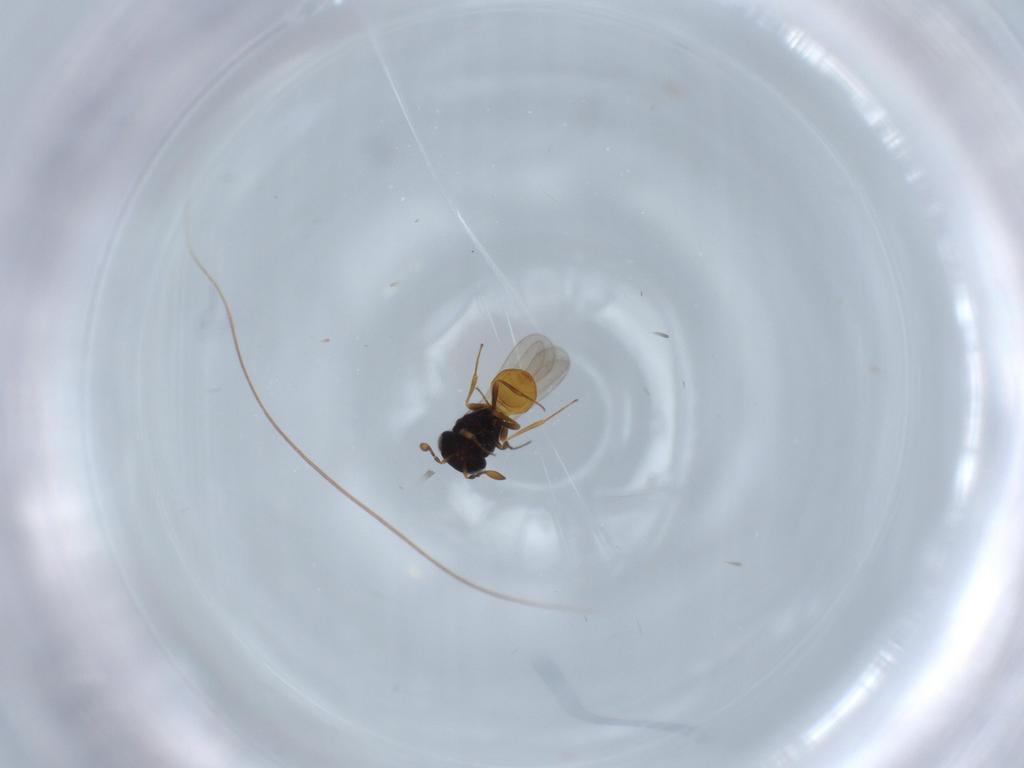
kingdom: Animalia
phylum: Arthropoda
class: Insecta
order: Hymenoptera
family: Scelionidae
